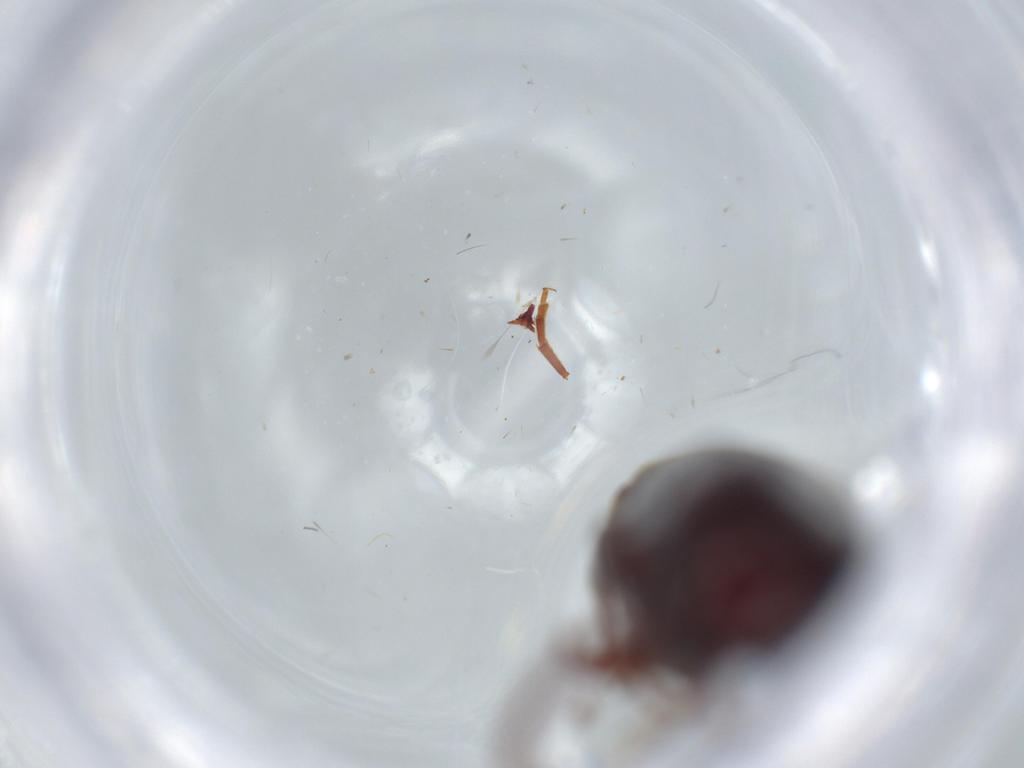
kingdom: Animalia
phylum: Arthropoda
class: Insecta
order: Coleoptera
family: Eucnemidae
